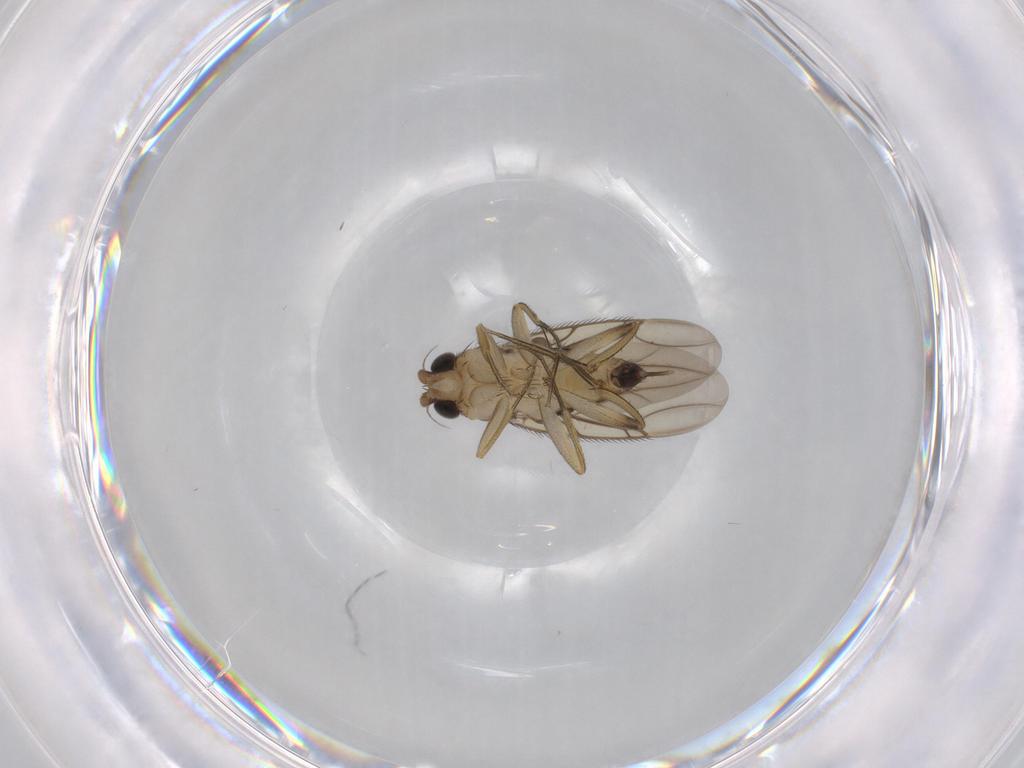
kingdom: Animalia
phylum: Arthropoda
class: Insecta
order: Diptera
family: Phoridae
